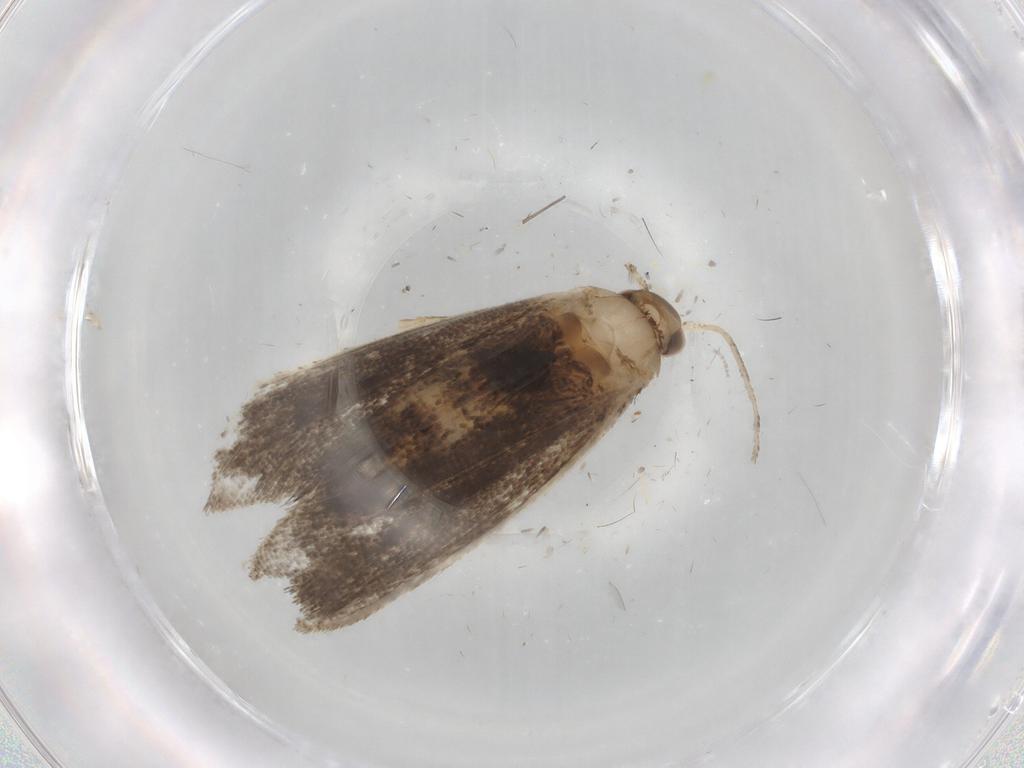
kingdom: Animalia
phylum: Arthropoda
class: Insecta
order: Lepidoptera
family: Dryadaulidae
